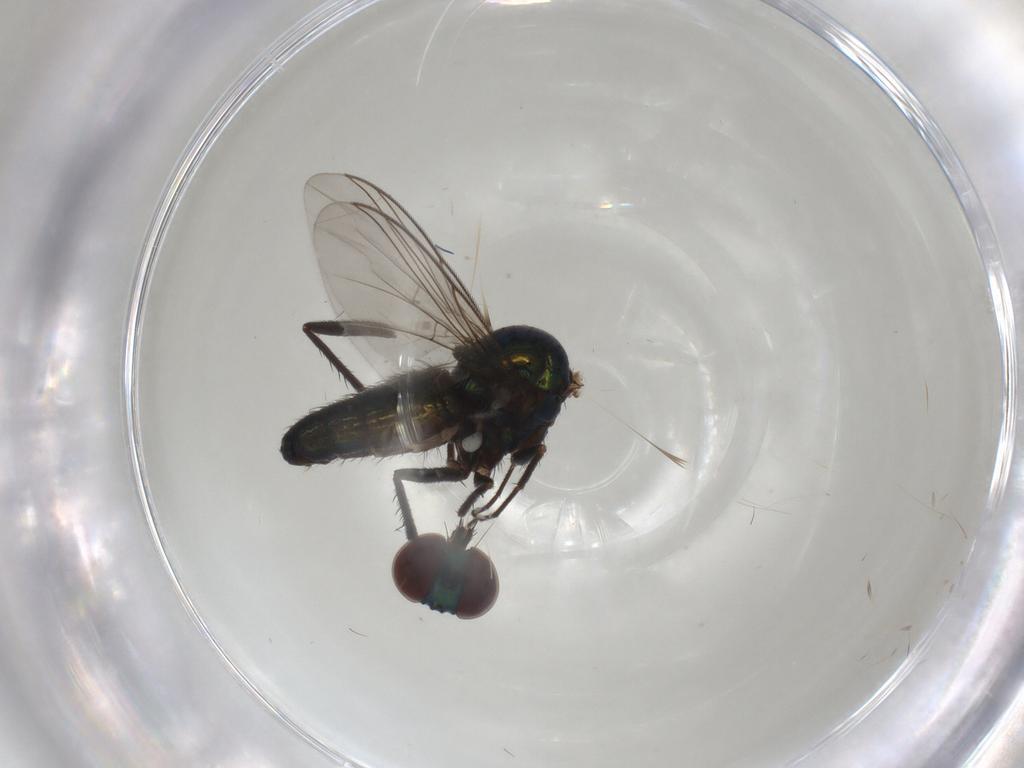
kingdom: Animalia
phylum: Arthropoda
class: Insecta
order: Diptera
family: Dolichopodidae
